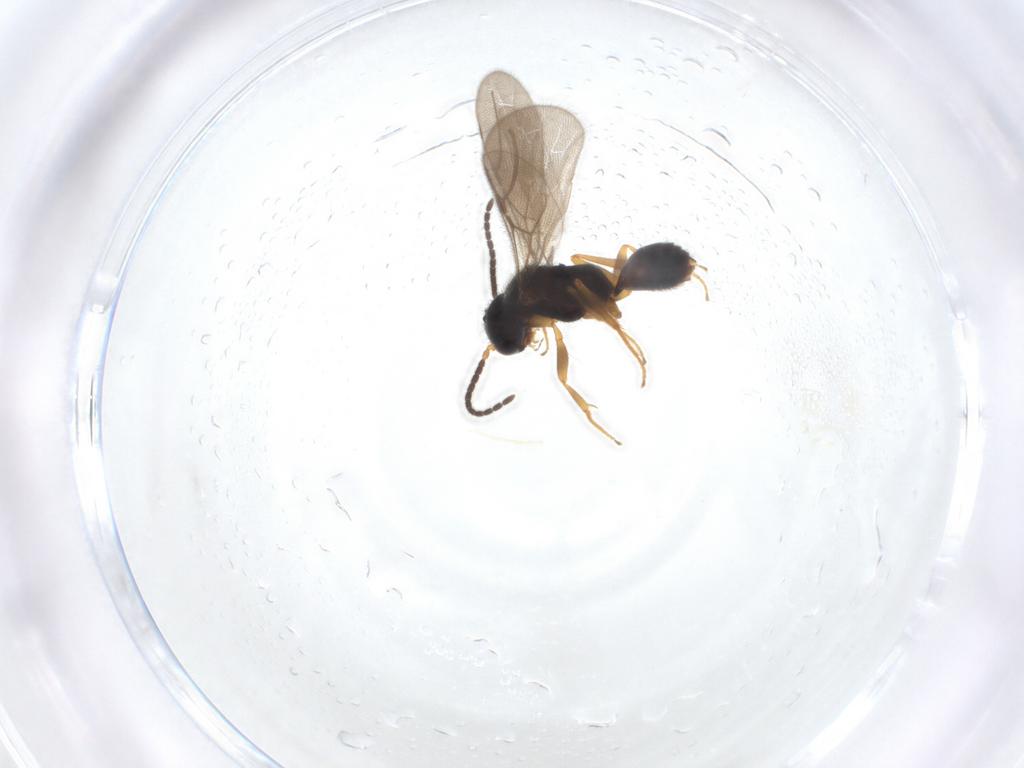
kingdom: Animalia
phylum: Arthropoda
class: Insecta
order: Hymenoptera
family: Bethylidae
